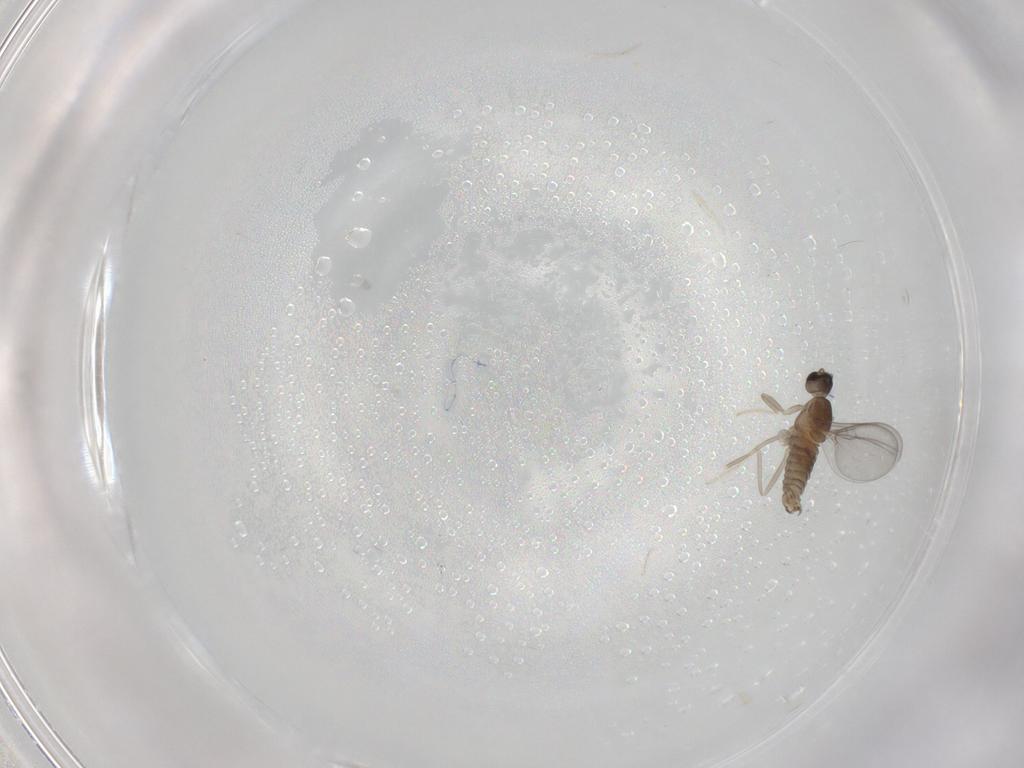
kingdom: Animalia
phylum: Arthropoda
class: Insecta
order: Diptera
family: Cecidomyiidae
